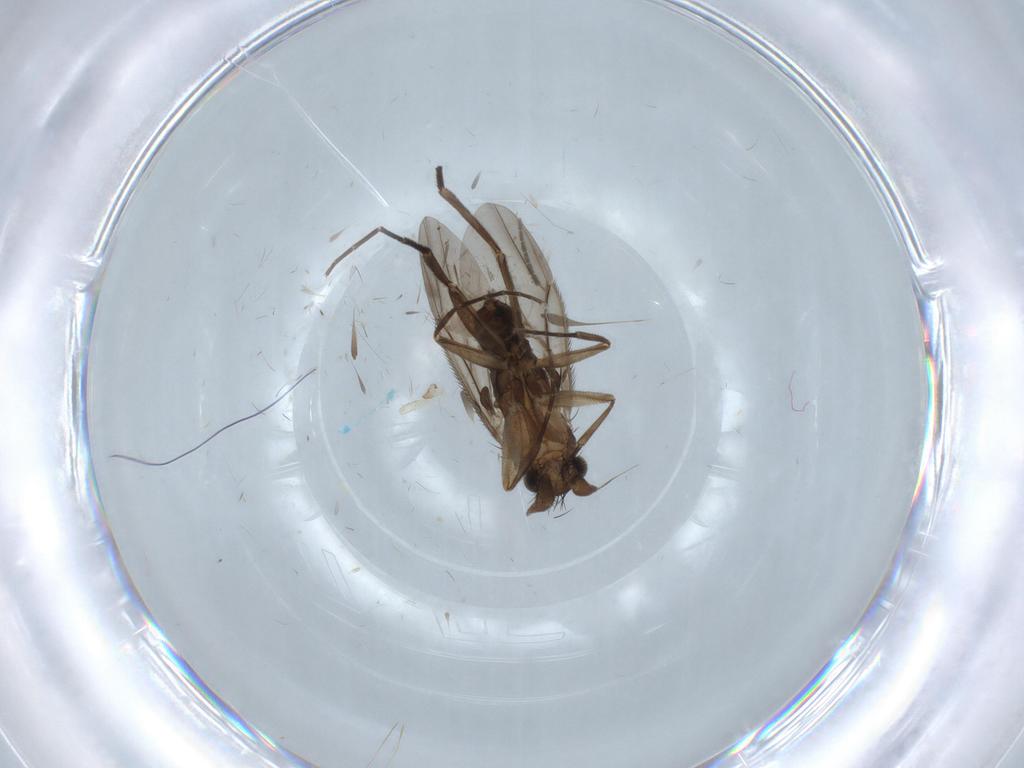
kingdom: Animalia
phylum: Arthropoda
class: Insecta
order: Diptera
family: Phoridae
